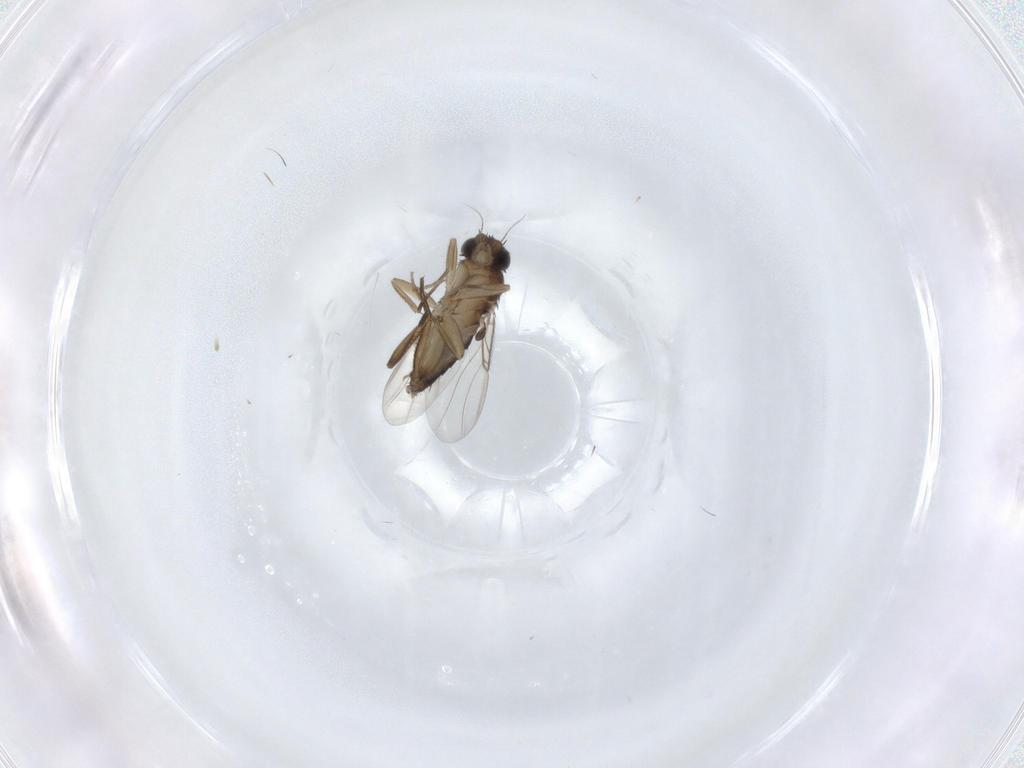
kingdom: Animalia
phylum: Arthropoda
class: Insecta
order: Diptera
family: Phoridae
